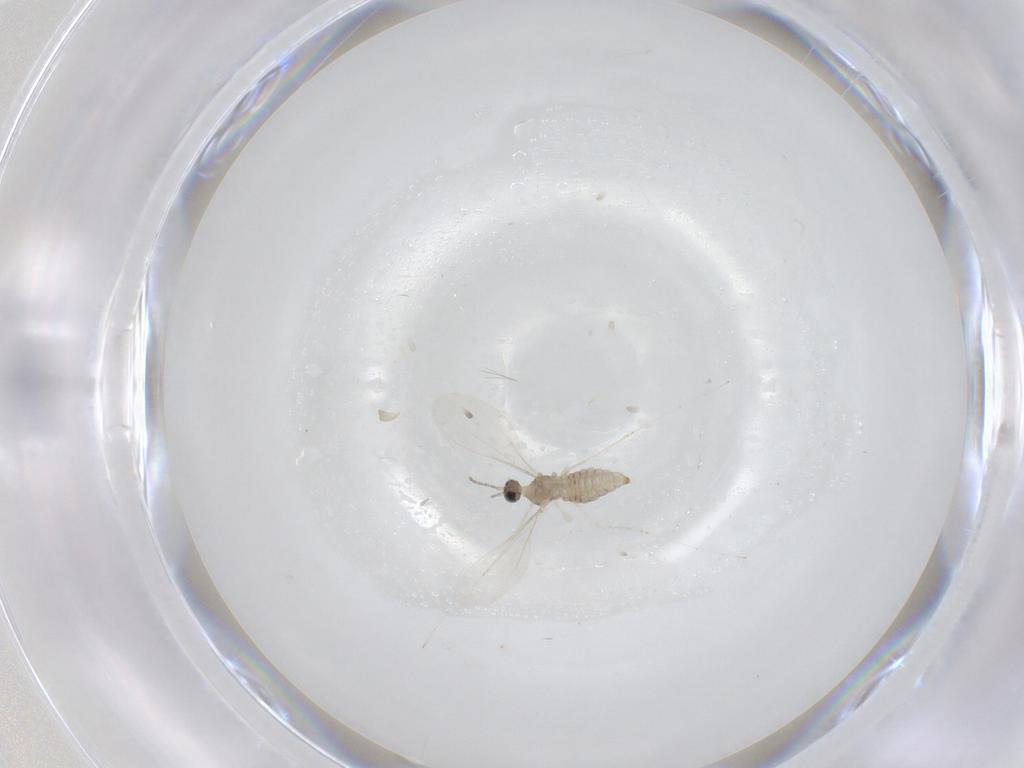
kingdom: Animalia
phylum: Arthropoda
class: Insecta
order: Diptera
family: Cecidomyiidae
